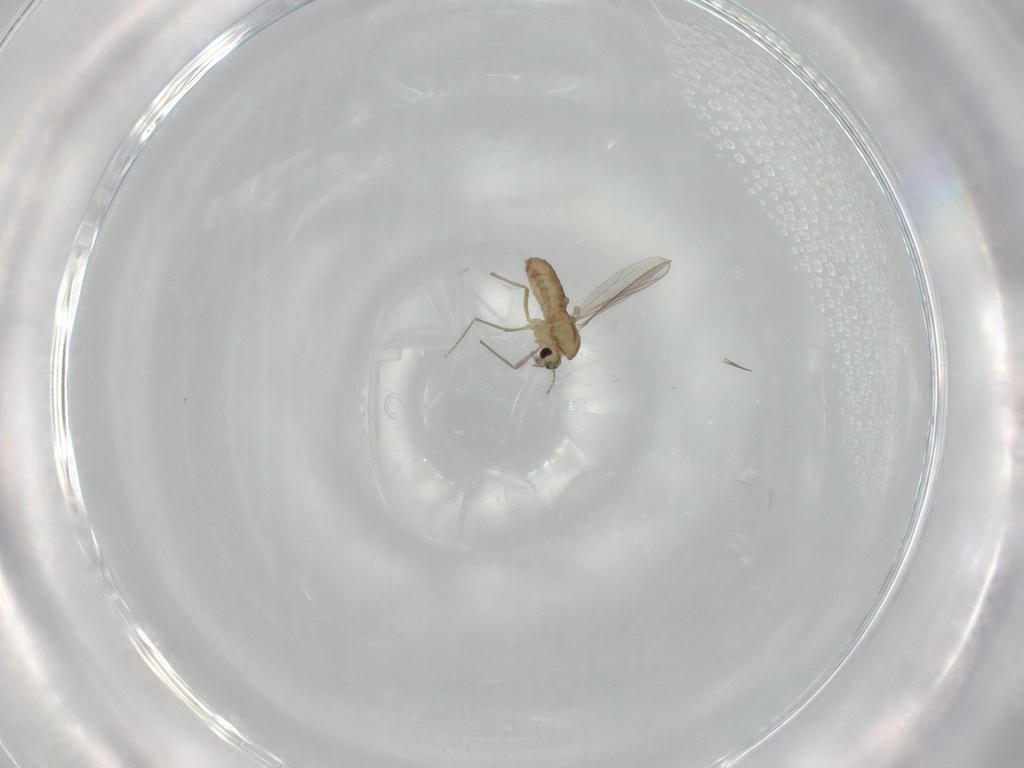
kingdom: Animalia
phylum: Arthropoda
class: Insecta
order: Diptera
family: Chironomidae
